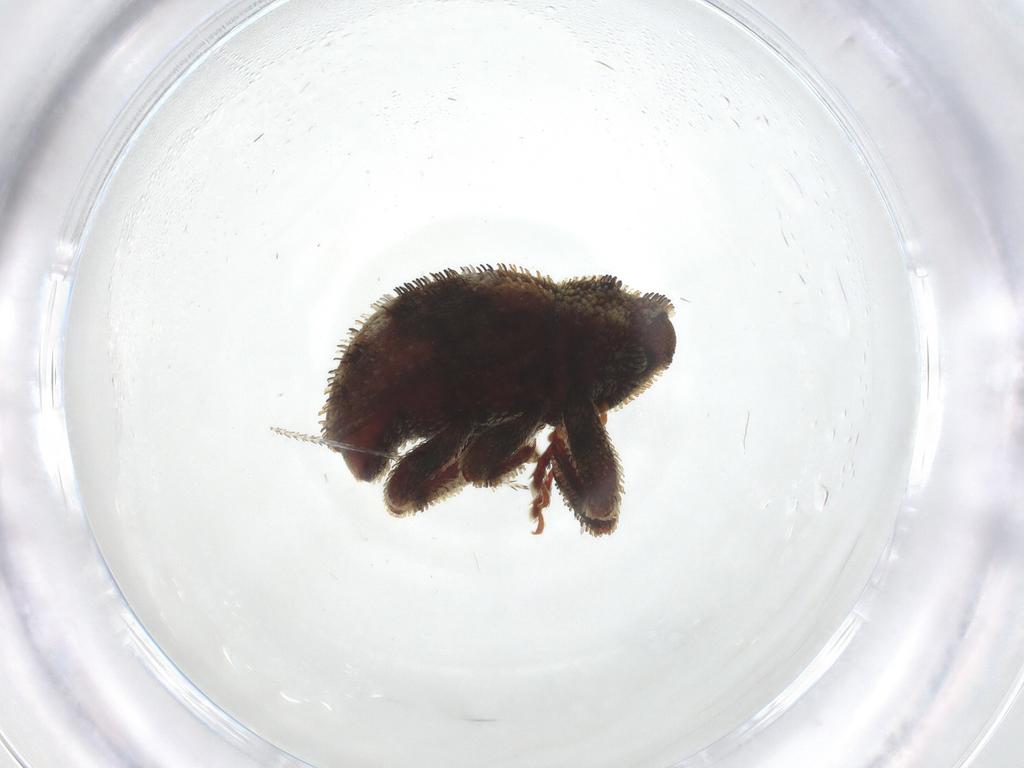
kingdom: Animalia
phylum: Arthropoda
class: Insecta
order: Coleoptera
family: Curculionidae
